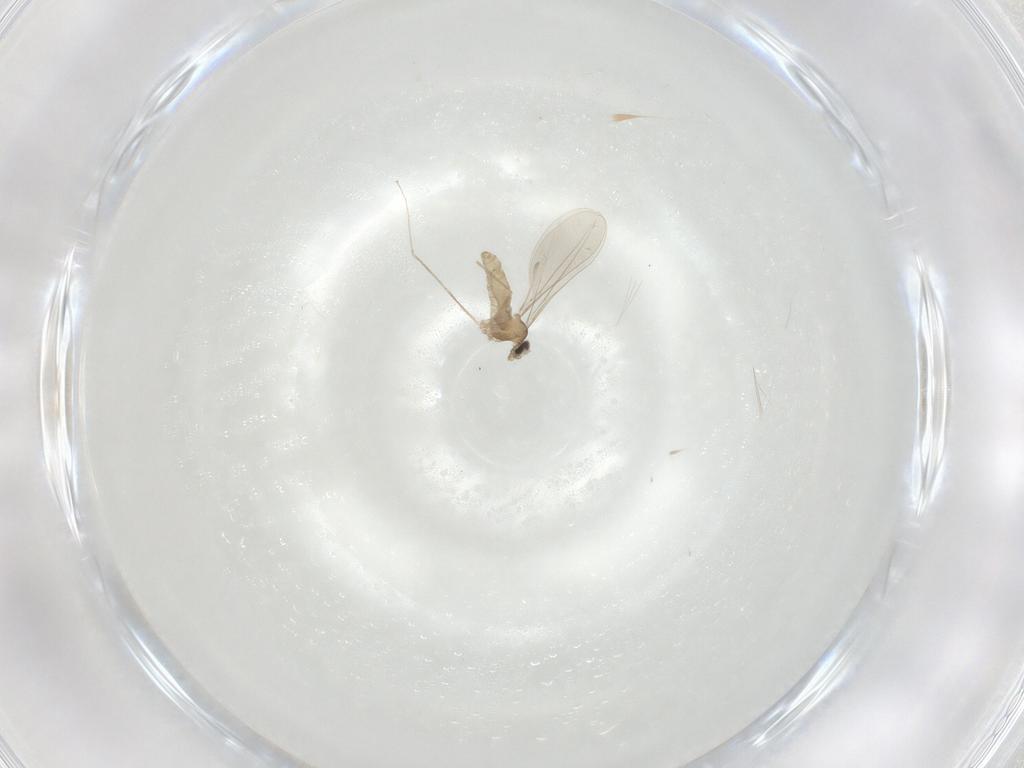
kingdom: Animalia
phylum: Arthropoda
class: Insecta
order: Diptera
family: Cecidomyiidae
